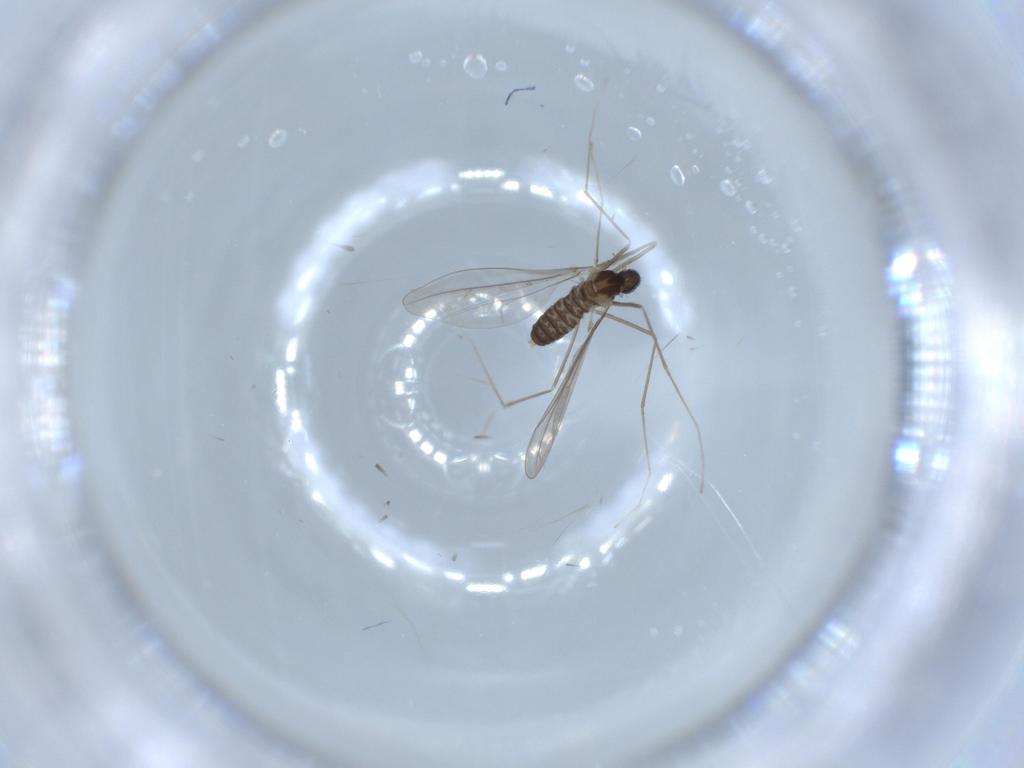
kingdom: Animalia
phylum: Arthropoda
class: Insecta
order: Diptera
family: Cecidomyiidae
